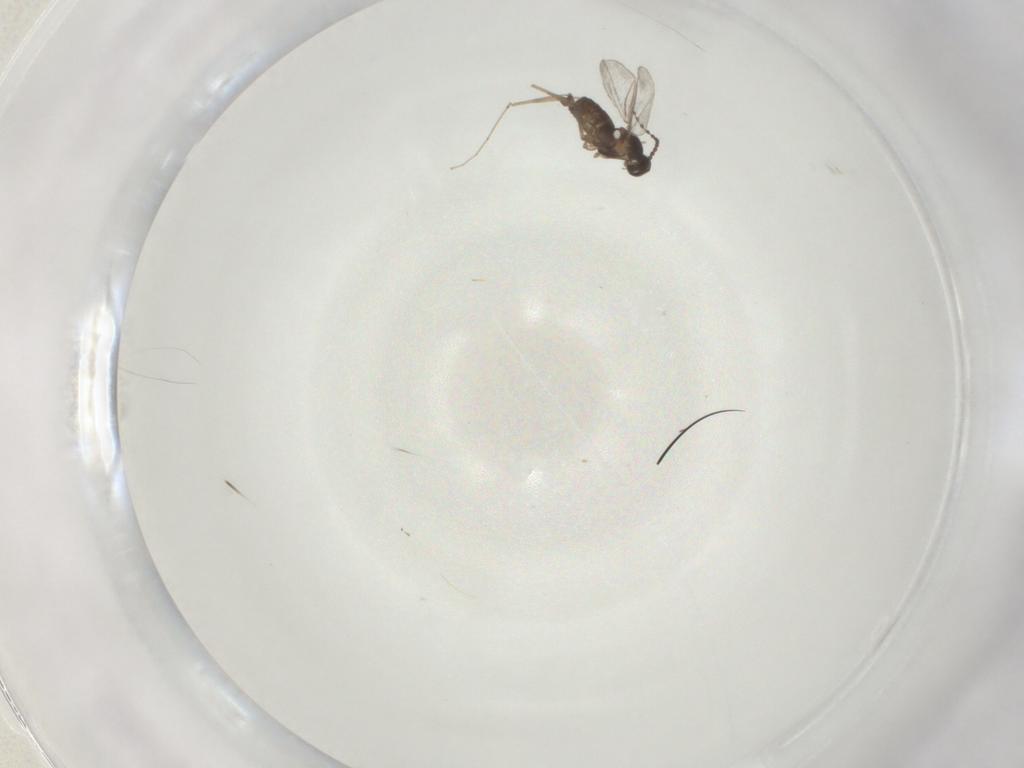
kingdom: Animalia
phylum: Arthropoda
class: Insecta
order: Diptera
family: Cecidomyiidae
